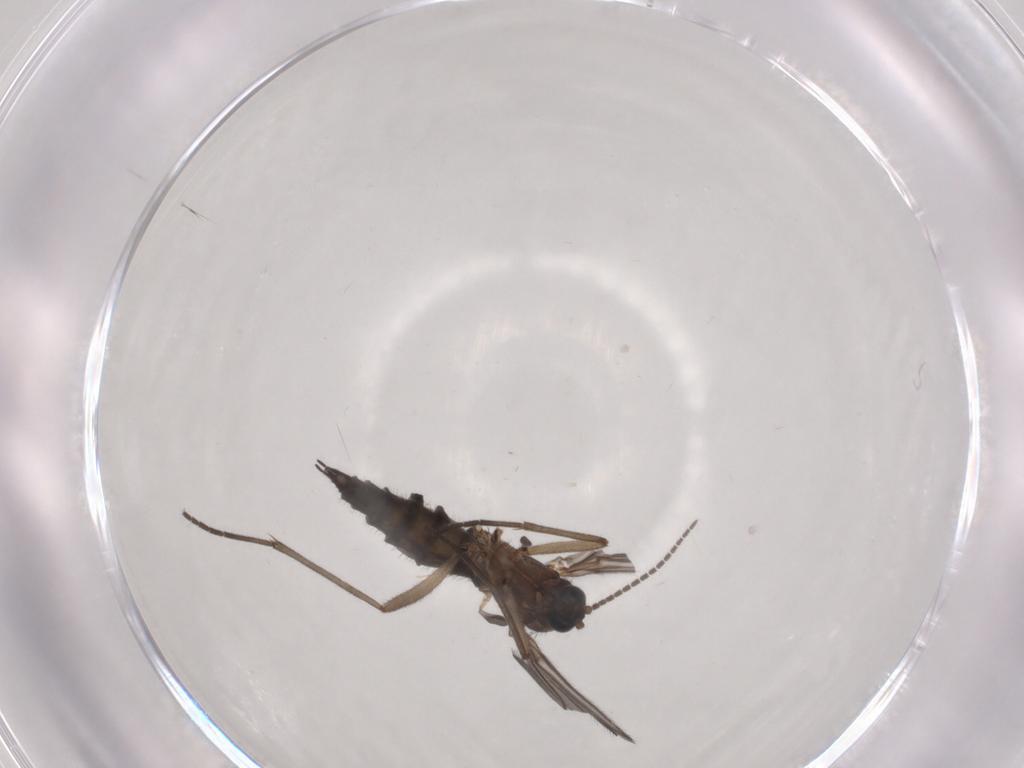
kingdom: Animalia
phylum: Arthropoda
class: Insecta
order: Diptera
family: Sciaridae
